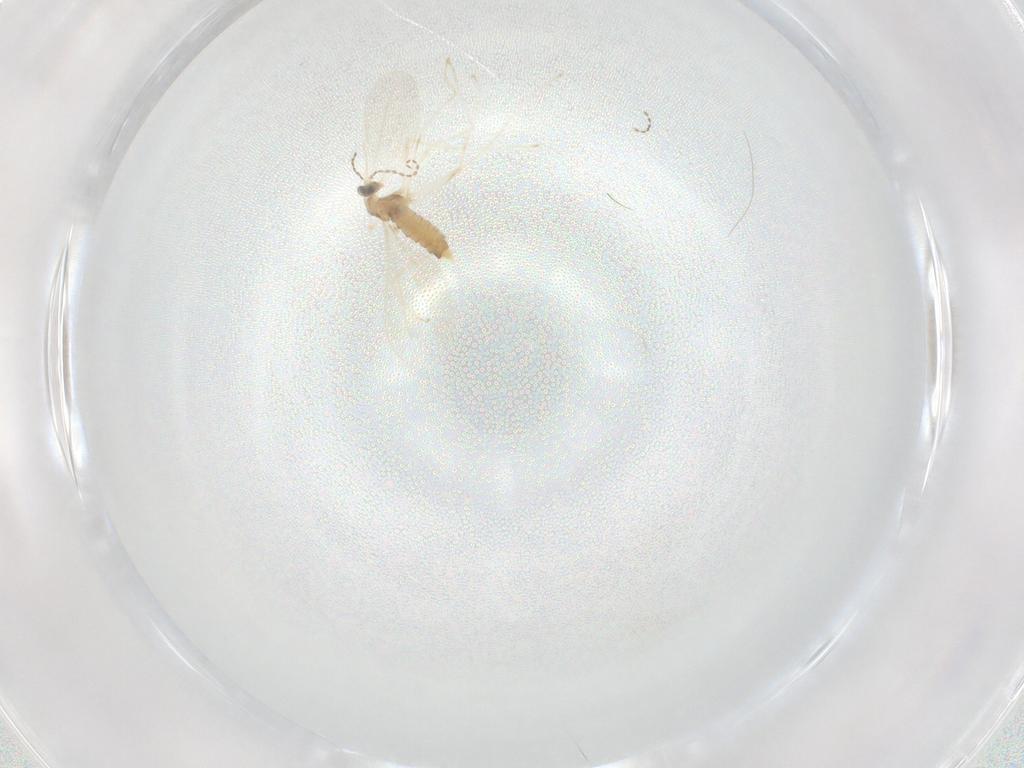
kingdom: Animalia
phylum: Arthropoda
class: Insecta
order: Diptera
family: Cecidomyiidae
